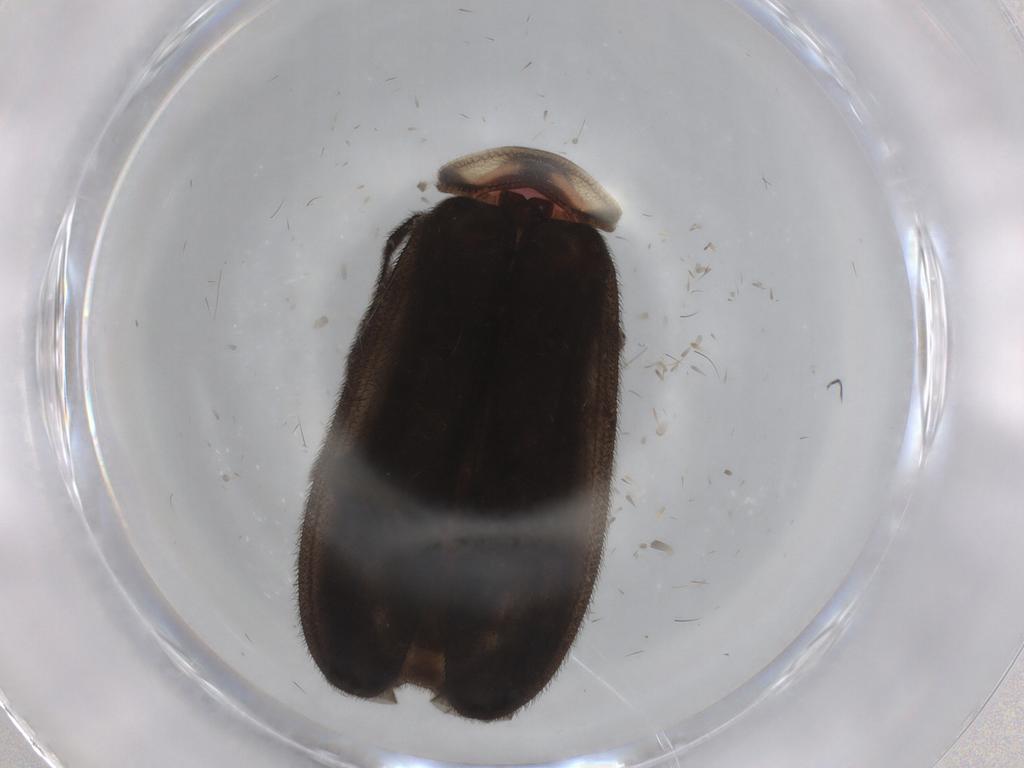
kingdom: Animalia
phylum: Arthropoda
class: Insecta
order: Coleoptera
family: Lampyridae
